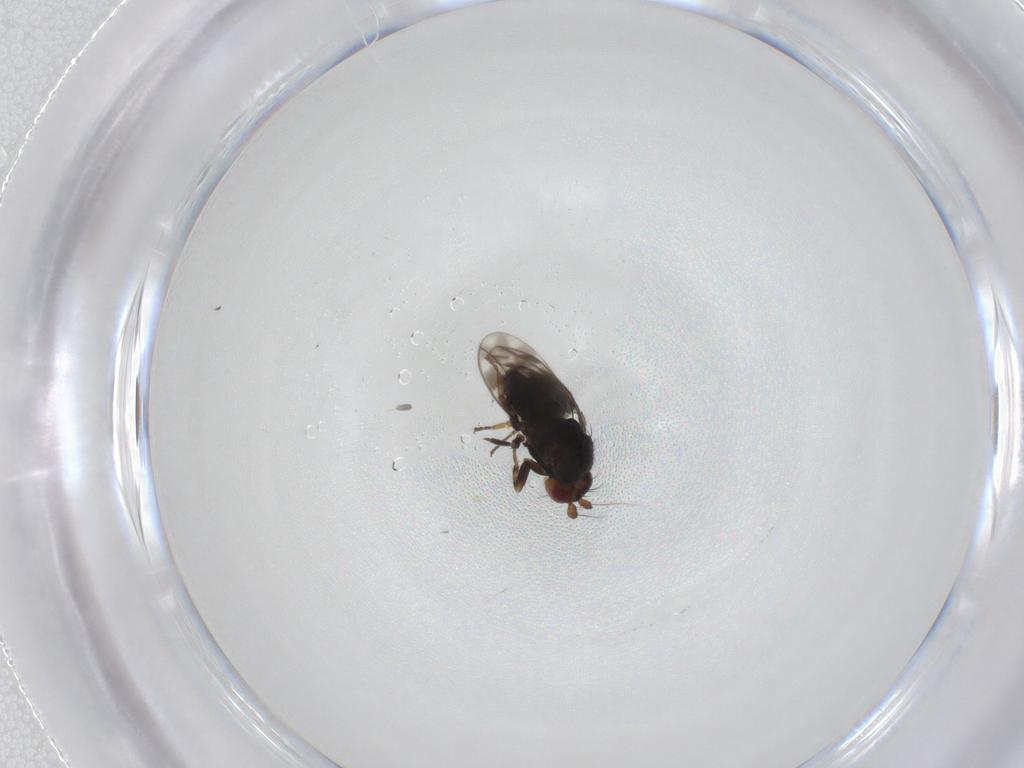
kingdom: Animalia
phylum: Arthropoda
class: Insecta
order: Diptera
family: Sphaeroceridae
